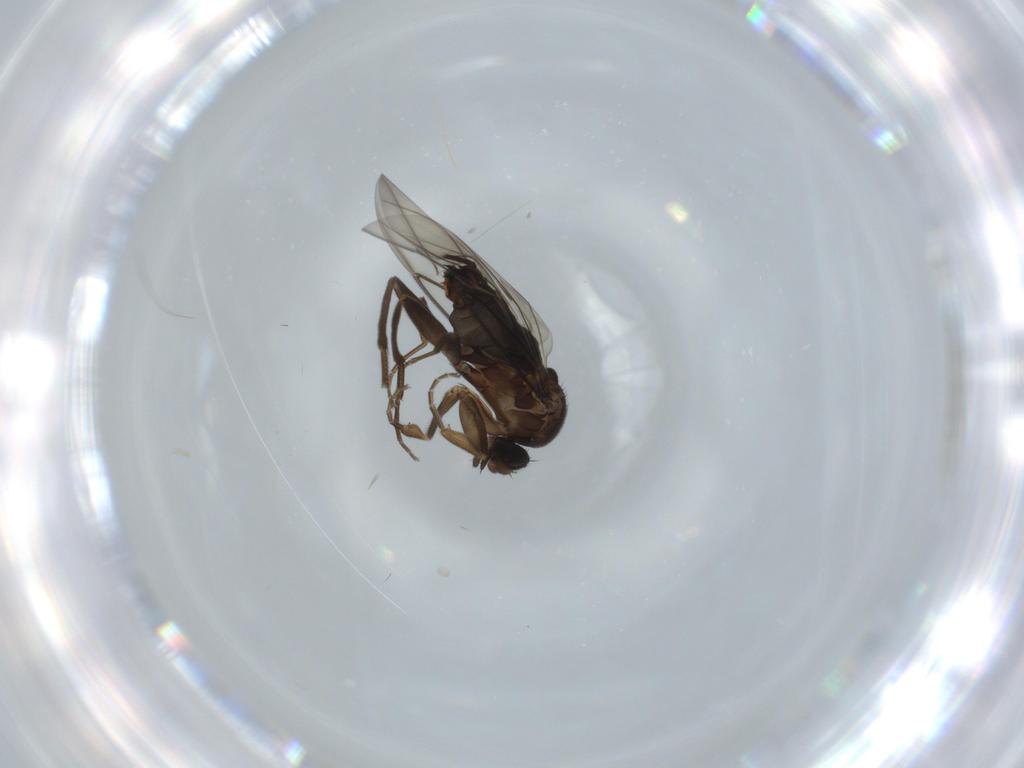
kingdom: Animalia
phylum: Arthropoda
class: Insecta
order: Diptera
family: Sciaridae
